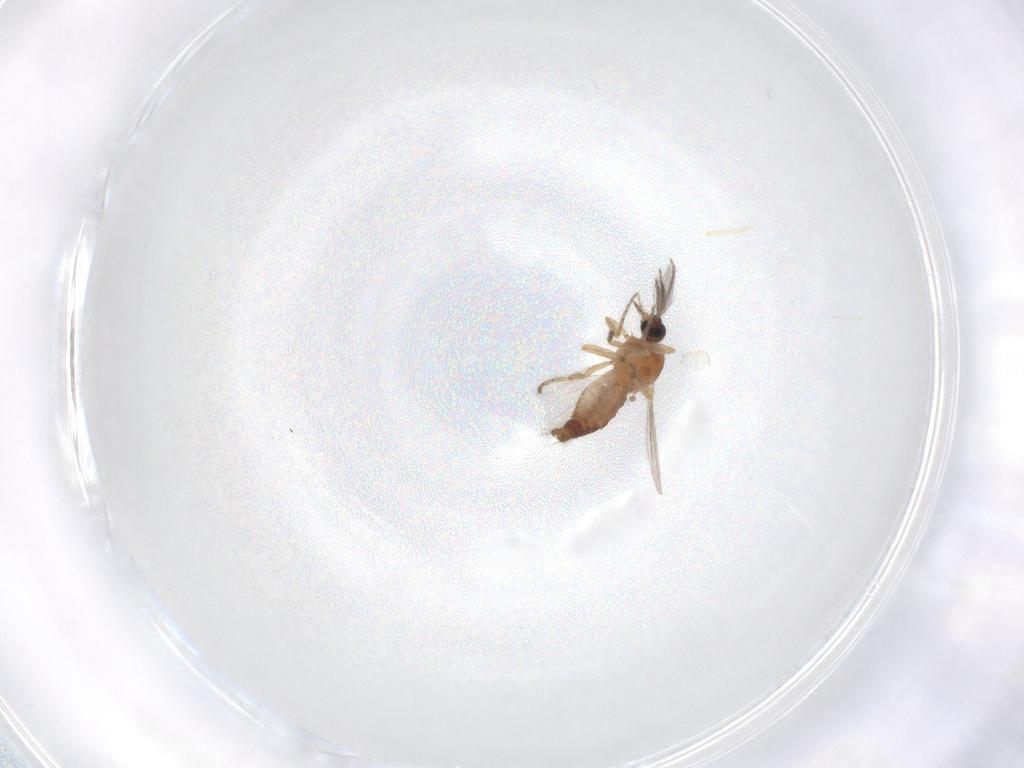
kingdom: Animalia
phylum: Arthropoda
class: Insecta
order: Diptera
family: Ceratopogonidae
